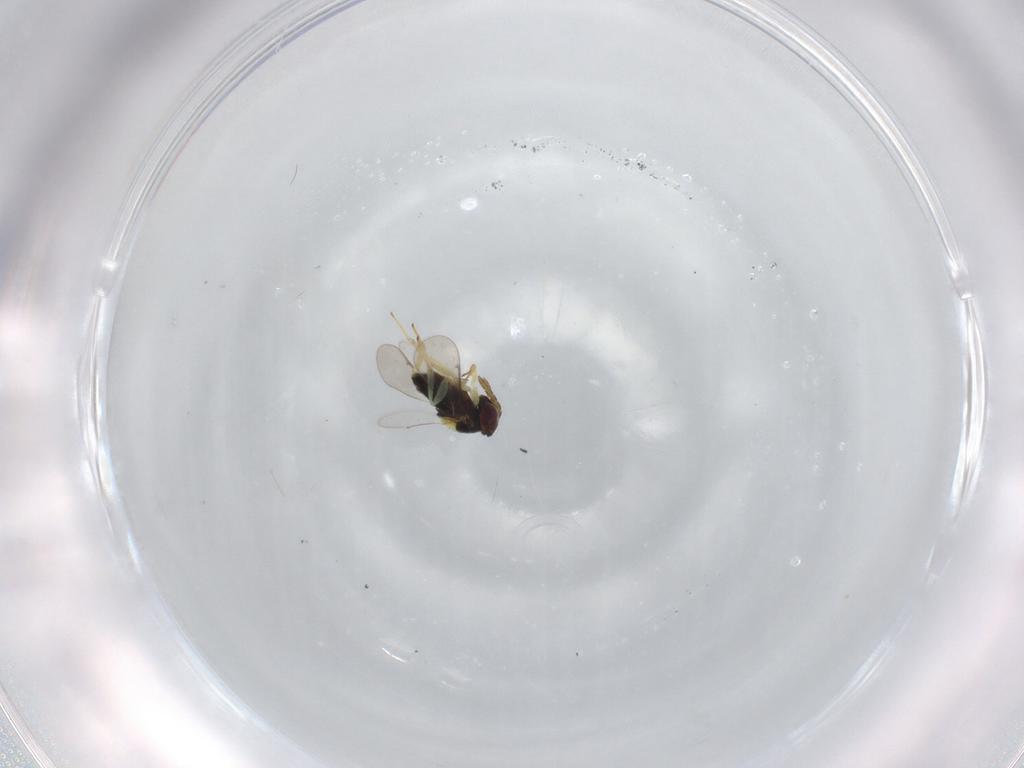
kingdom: Animalia
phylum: Arthropoda
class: Insecta
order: Hymenoptera
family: Aphelinidae
